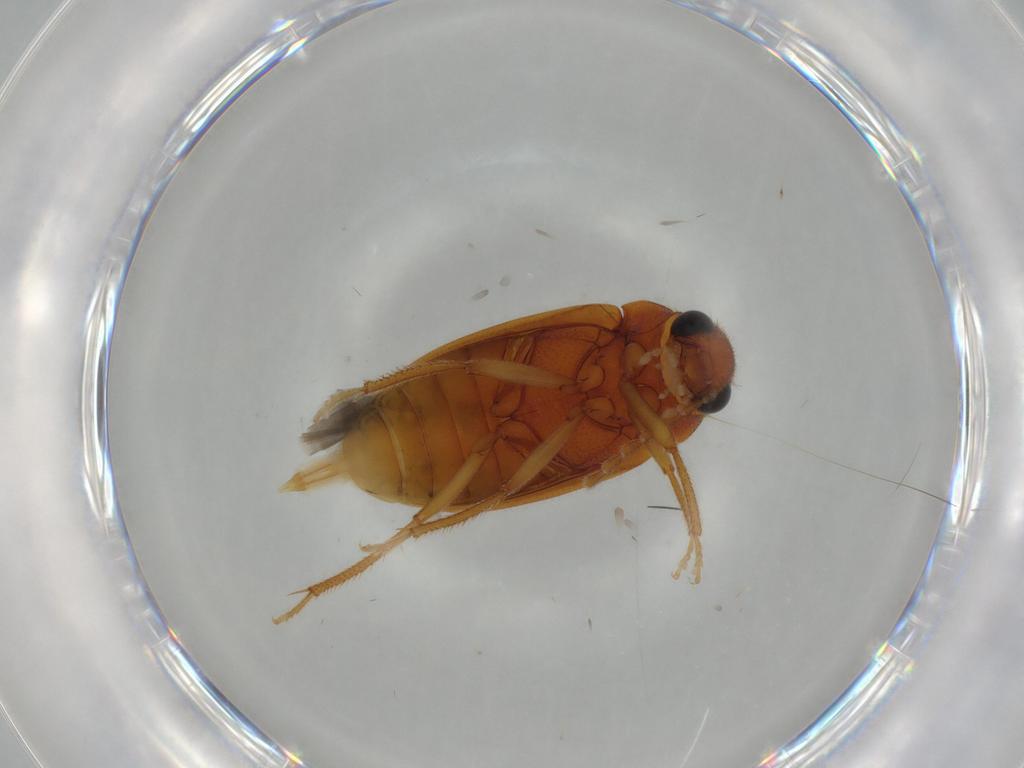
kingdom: Animalia
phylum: Arthropoda
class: Insecta
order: Coleoptera
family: Ptilodactylidae
